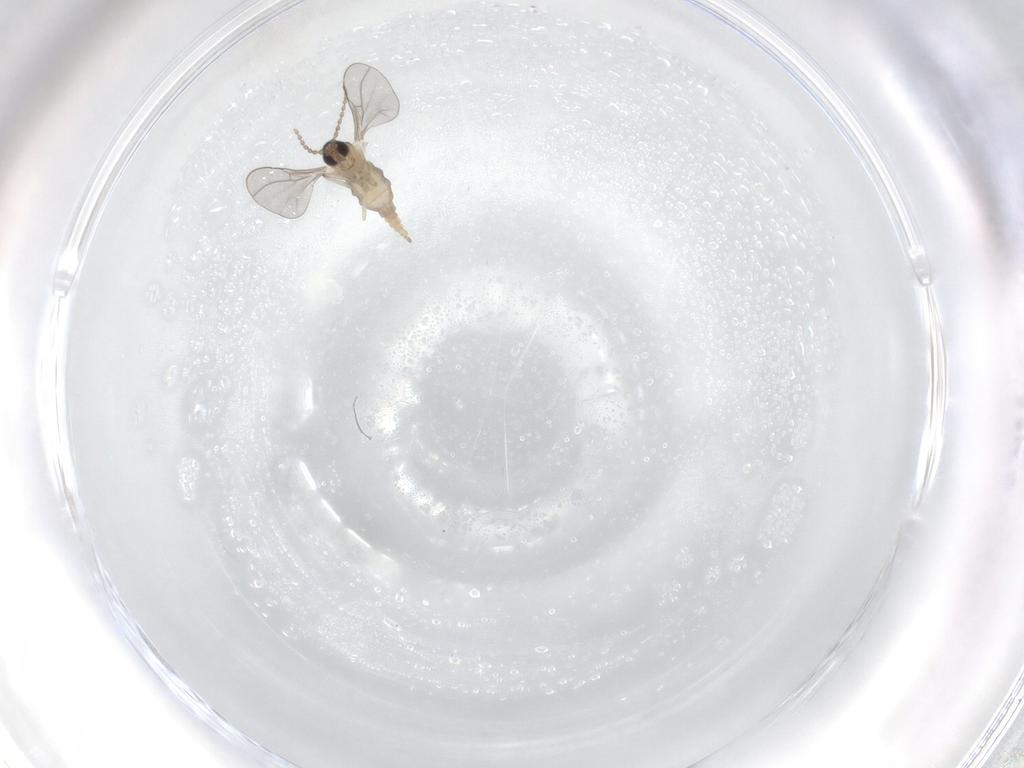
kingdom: Animalia
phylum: Arthropoda
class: Insecta
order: Diptera
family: Cecidomyiidae
